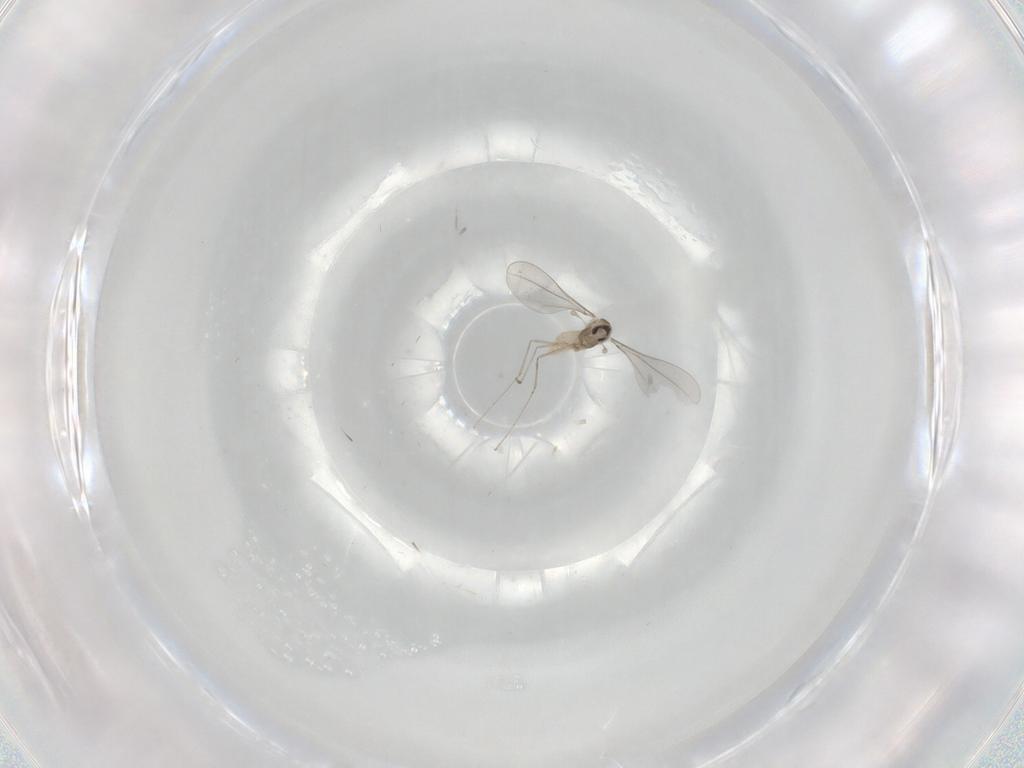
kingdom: Animalia
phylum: Arthropoda
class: Insecta
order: Diptera
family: Cecidomyiidae
